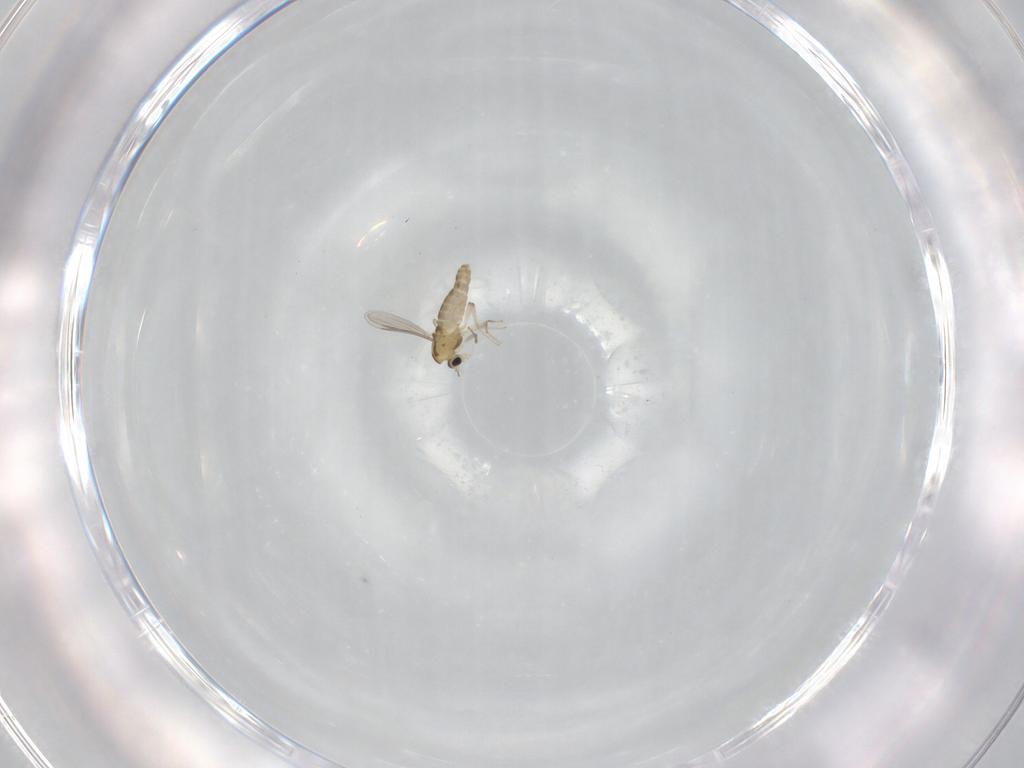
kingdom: Animalia
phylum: Arthropoda
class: Insecta
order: Diptera
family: Chironomidae
